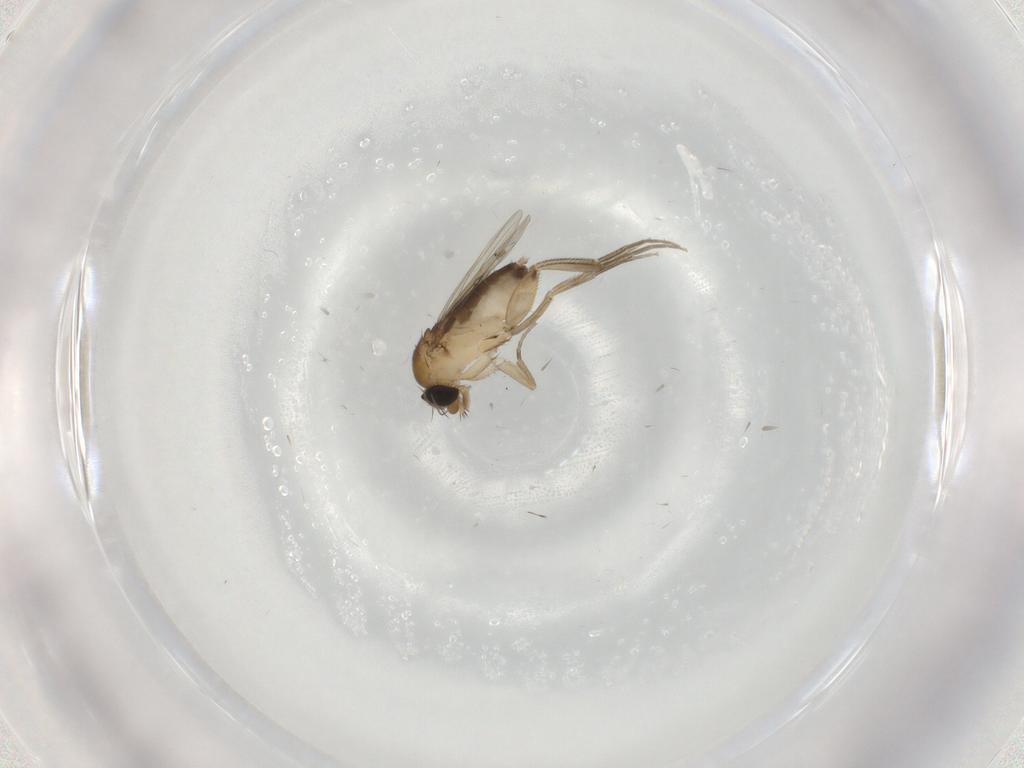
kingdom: Animalia
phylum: Arthropoda
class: Insecta
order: Diptera
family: Phoridae
